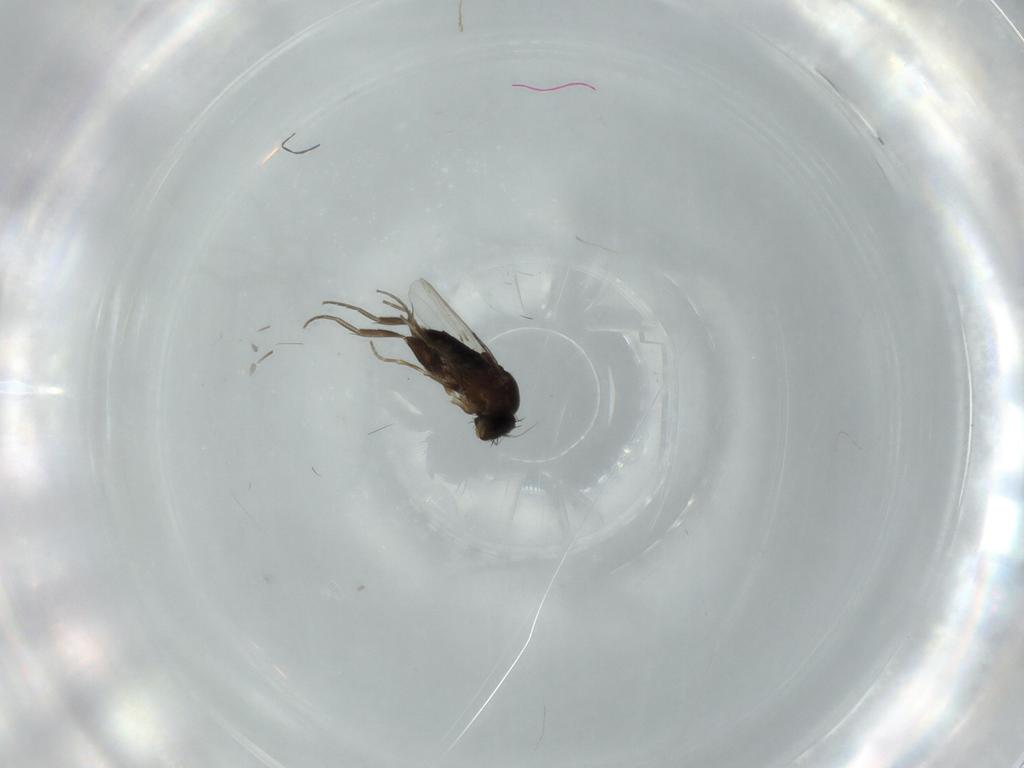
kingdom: Animalia
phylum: Arthropoda
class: Insecta
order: Diptera
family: Phoridae
